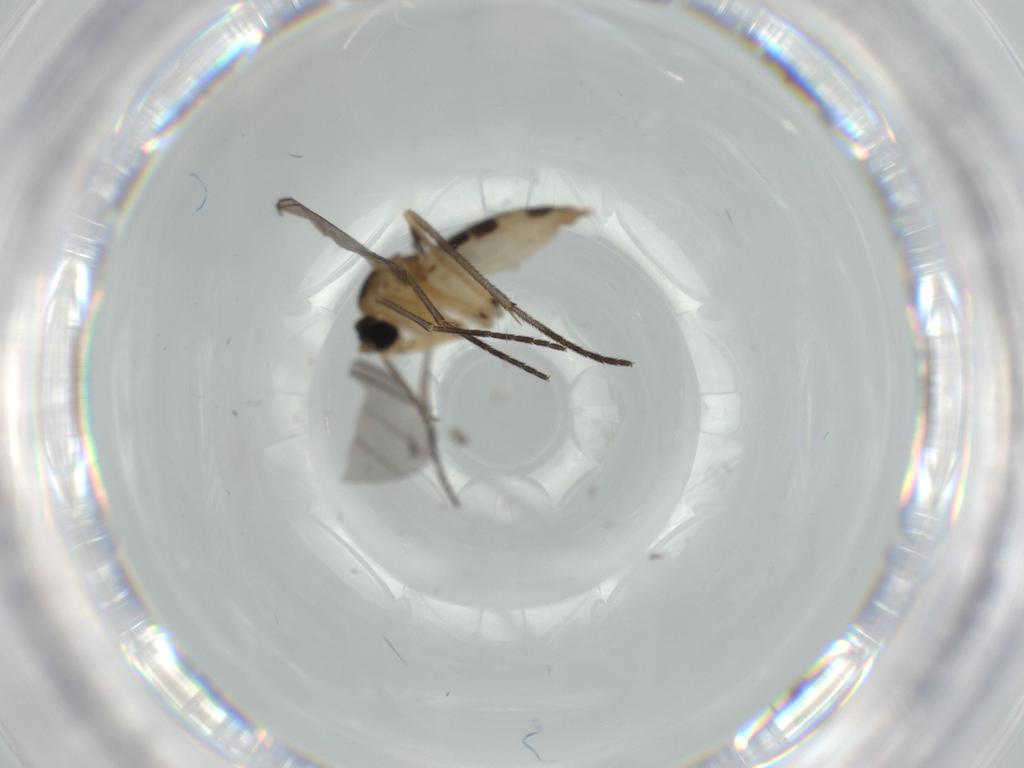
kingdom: Animalia
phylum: Arthropoda
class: Insecta
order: Diptera
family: Sciaridae
